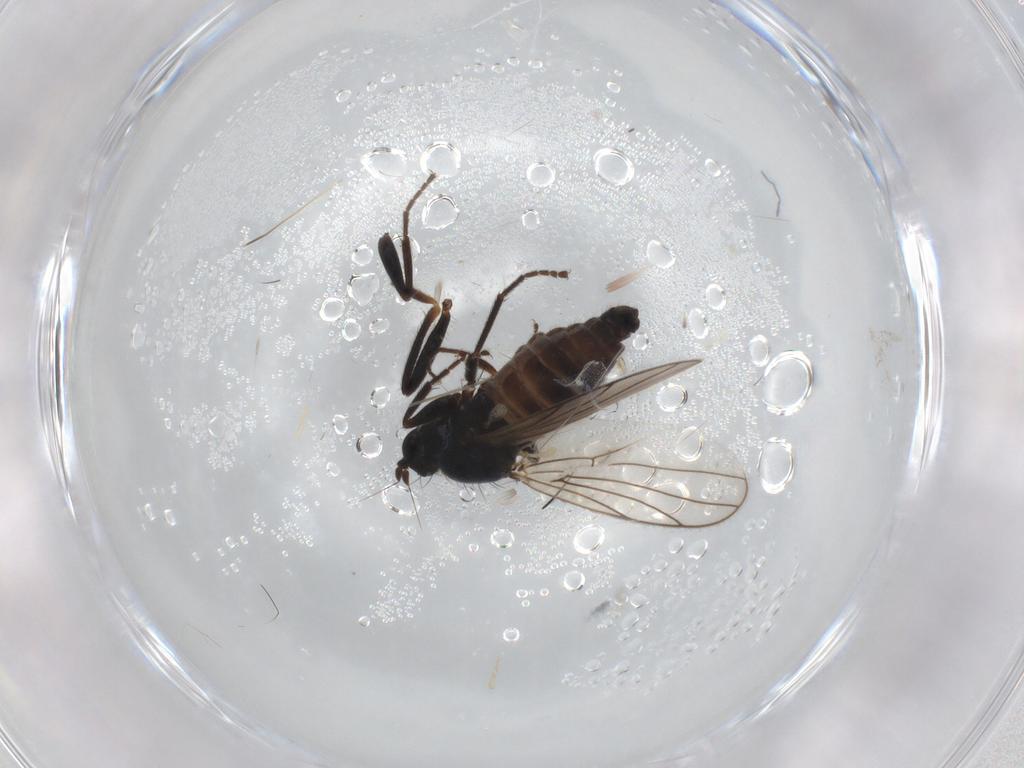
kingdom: Animalia
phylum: Arthropoda
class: Insecta
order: Diptera
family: Hybotidae
